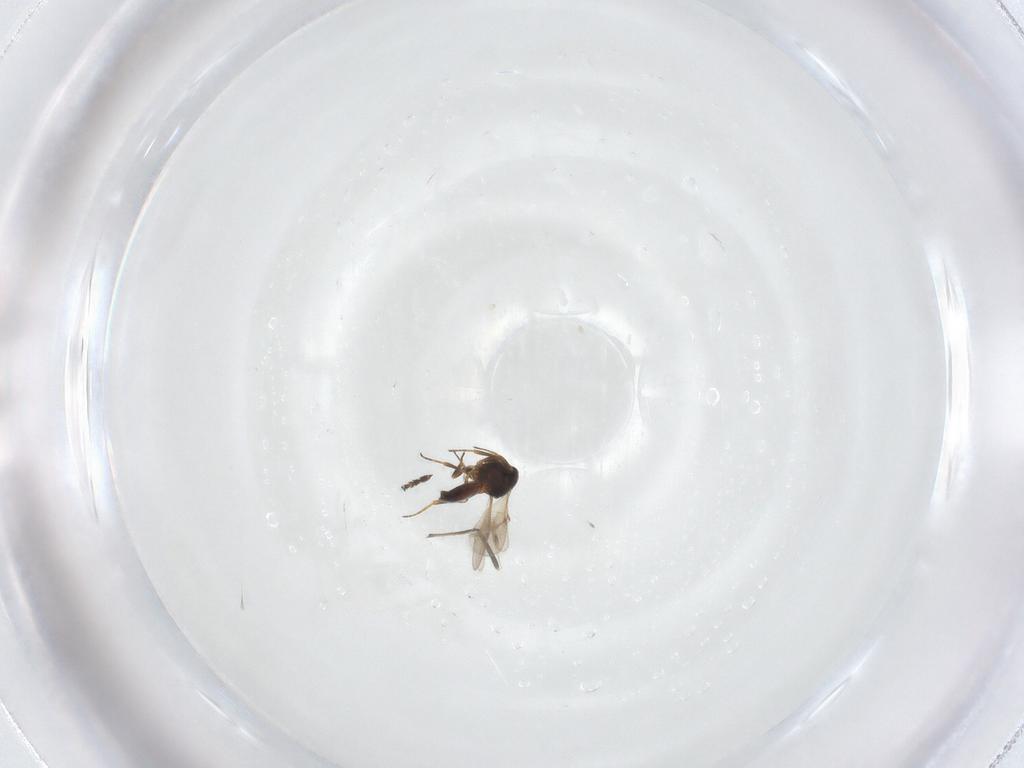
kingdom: Animalia
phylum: Arthropoda
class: Insecta
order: Hymenoptera
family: Scelionidae
